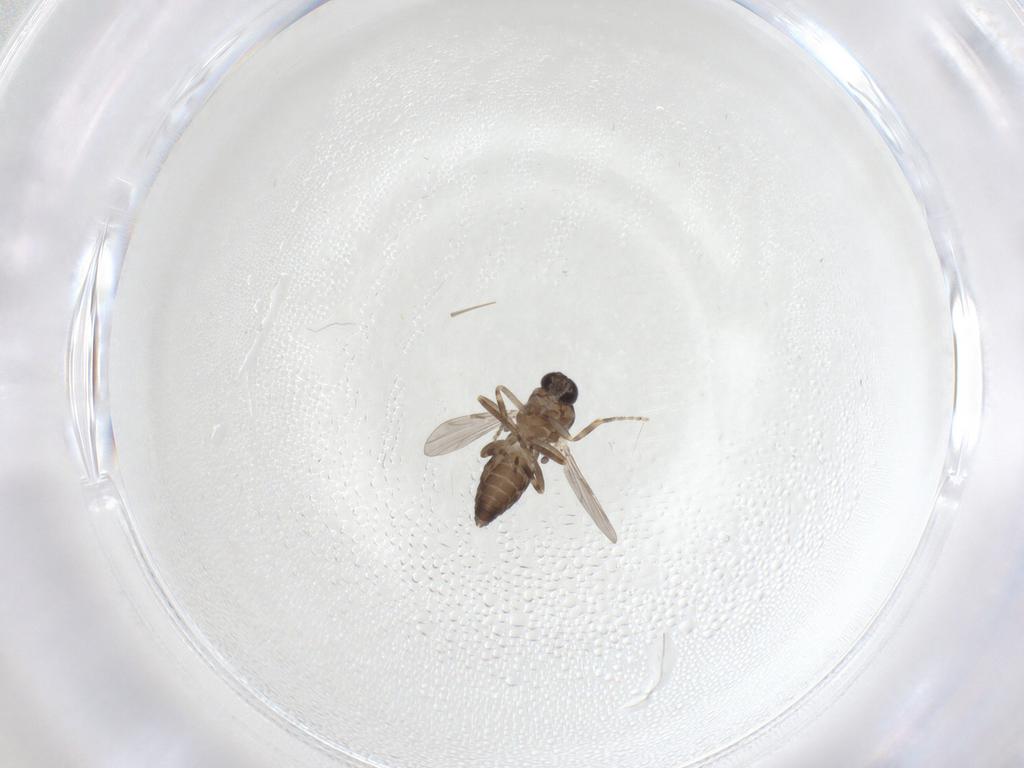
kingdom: Animalia
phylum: Arthropoda
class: Insecta
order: Diptera
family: Ceratopogonidae
